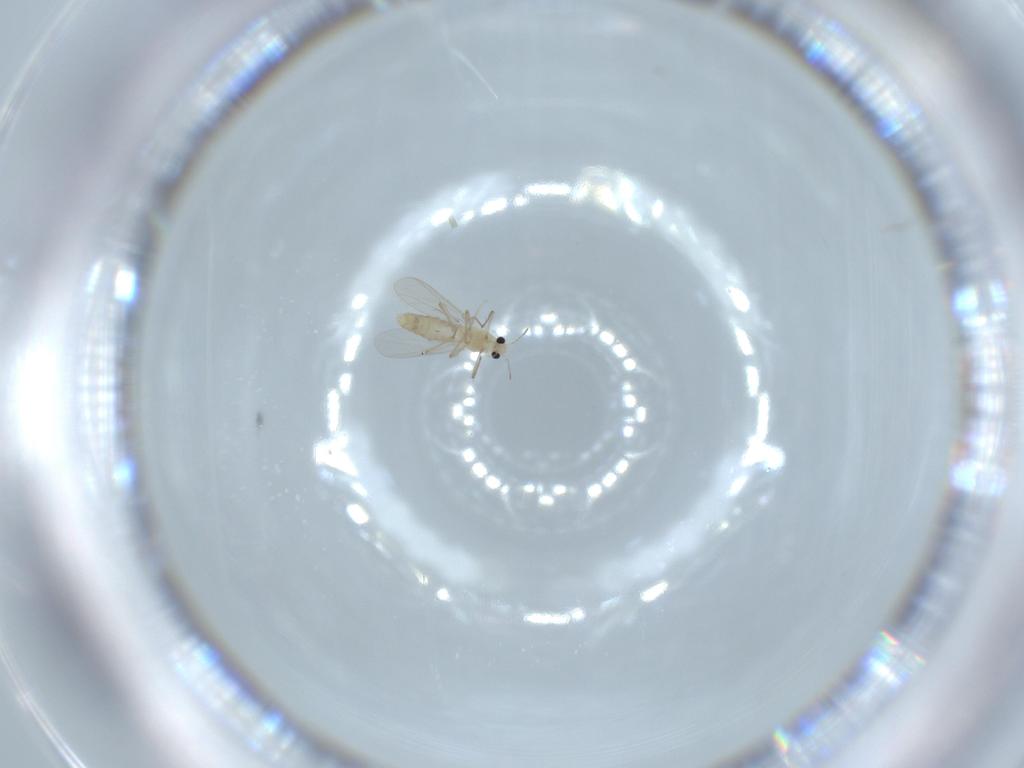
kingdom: Animalia
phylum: Arthropoda
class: Insecta
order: Diptera
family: Chironomidae
